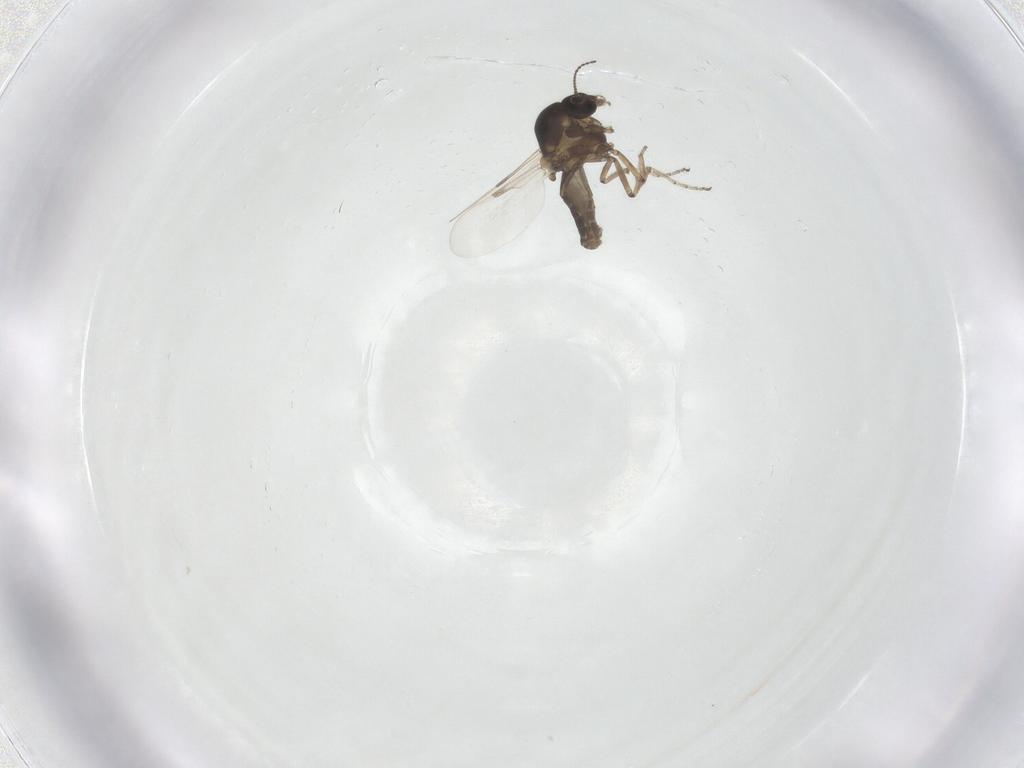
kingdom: Animalia
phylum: Arthropoda
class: Insecta
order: Diptera
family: Ceratopogonidae
